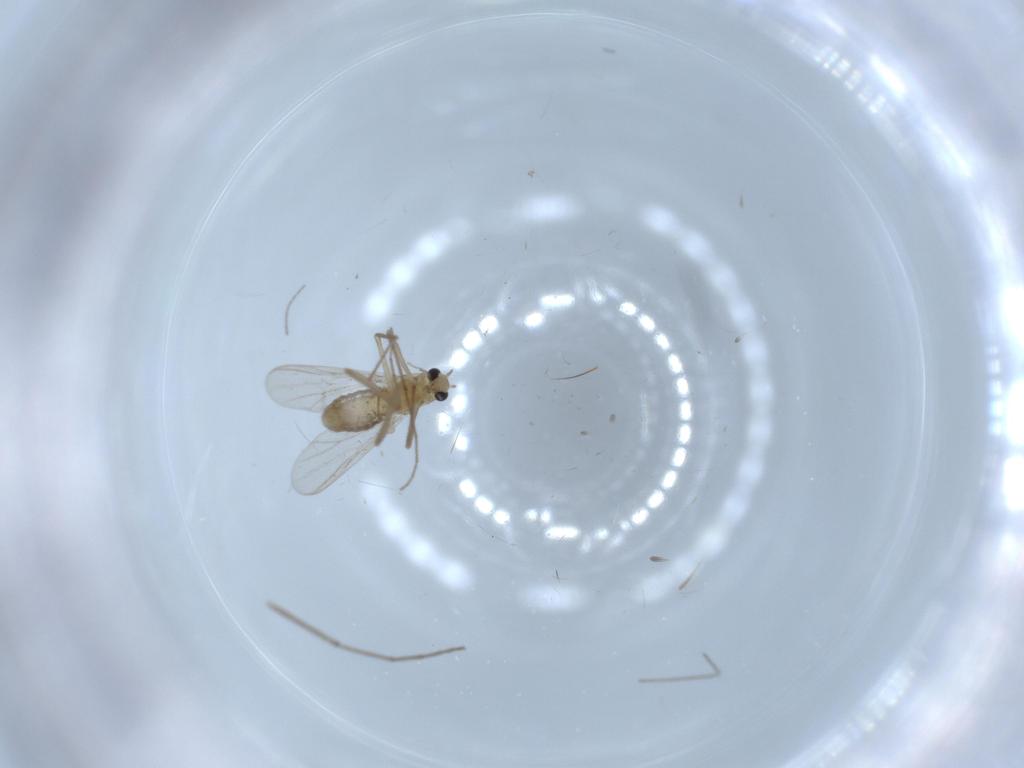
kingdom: Animalia
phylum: Arthropoda
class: Insecta
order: Diptera
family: Chironomidae
